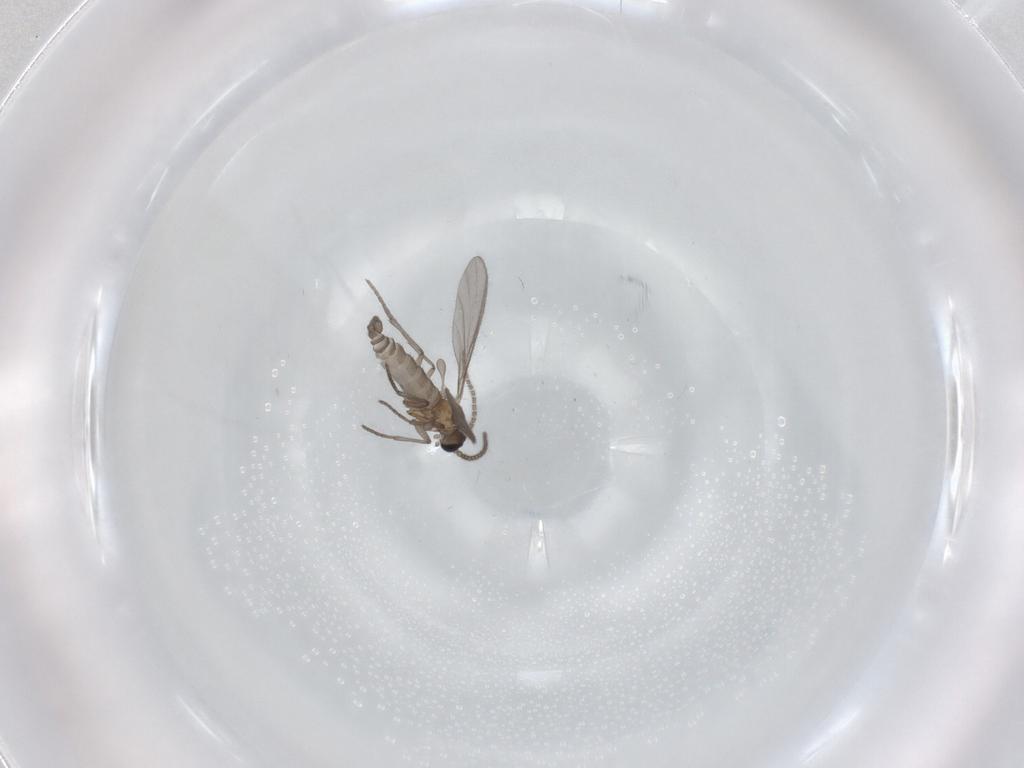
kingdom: Animalia
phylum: Arthropoda
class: Insecta
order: Diptera
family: Sciaridae
